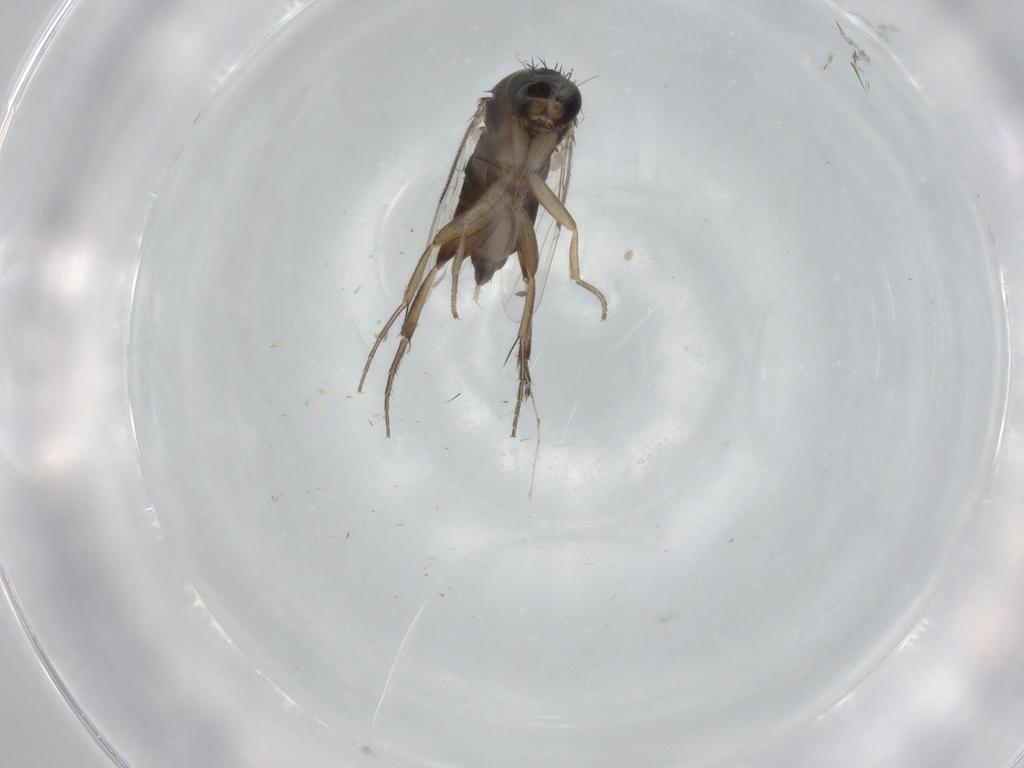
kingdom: Animalia
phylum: Arthropoda
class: Insecta
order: Diptera
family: Phoridae
